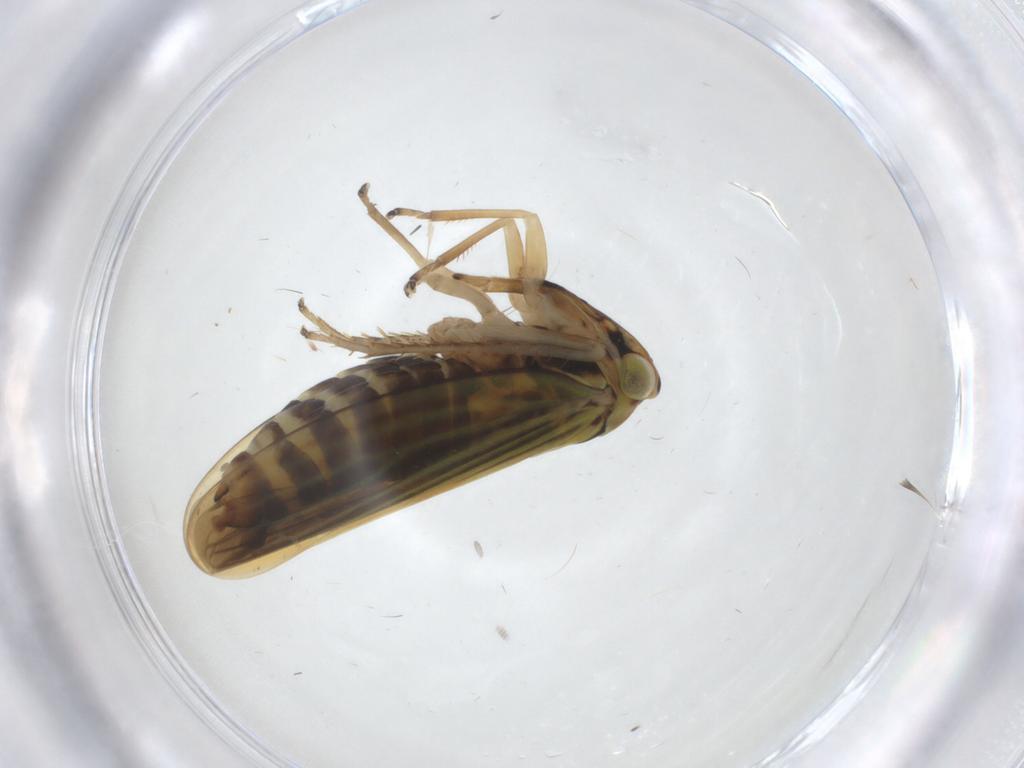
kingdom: Animalia
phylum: Arthropoda
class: Insecta
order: Hemiptera
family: Cicadellidae
